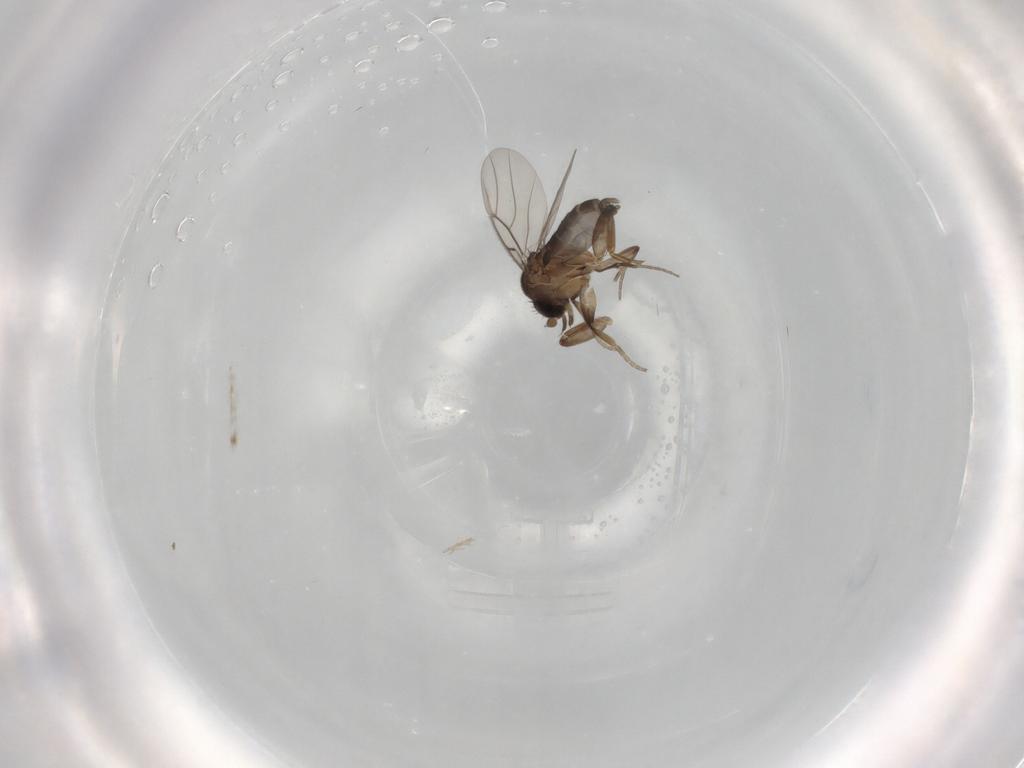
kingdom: Animalia
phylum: Arthropoda
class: Insecta
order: Diptera
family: Phoridae
